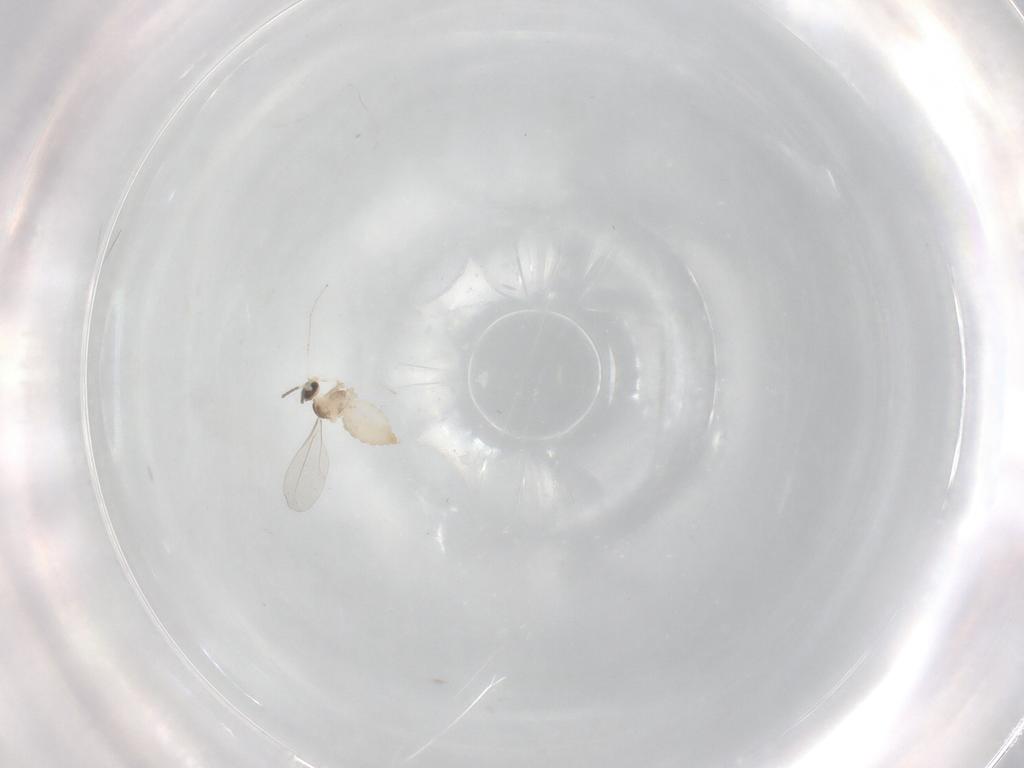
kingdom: Animalia
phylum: Arthropoda
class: Insecta
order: Diptera
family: Cecidomyiidae
